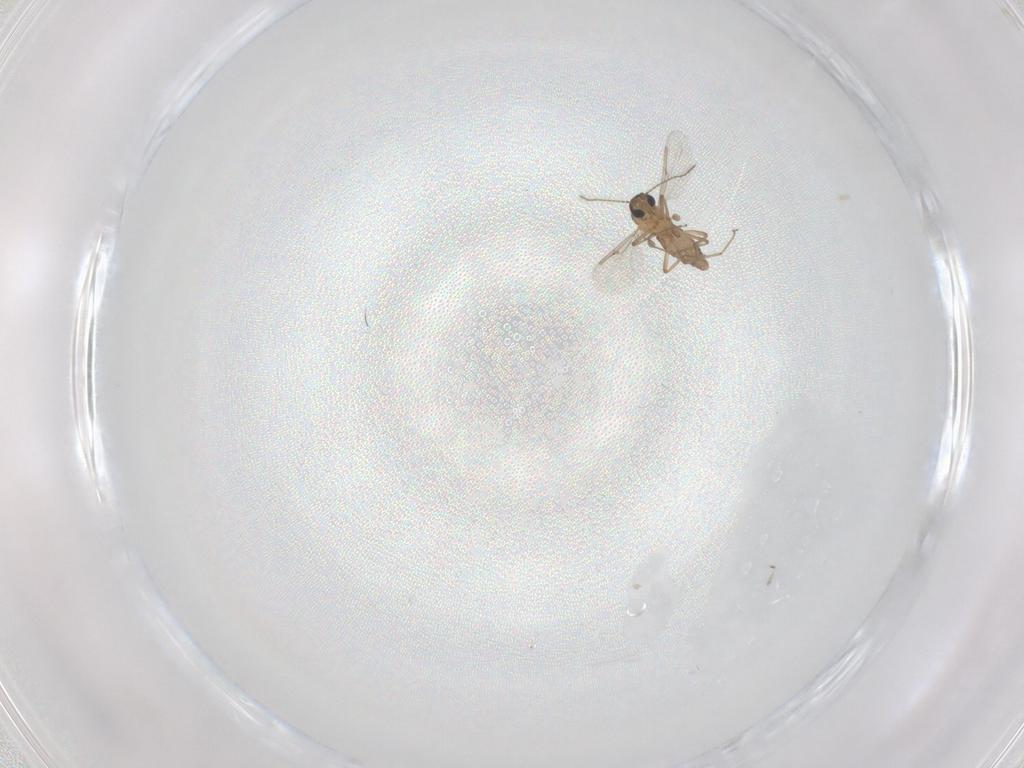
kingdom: Animalia
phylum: Arthropoda
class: Insecta
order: Diptera
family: Ceratopogonidae
